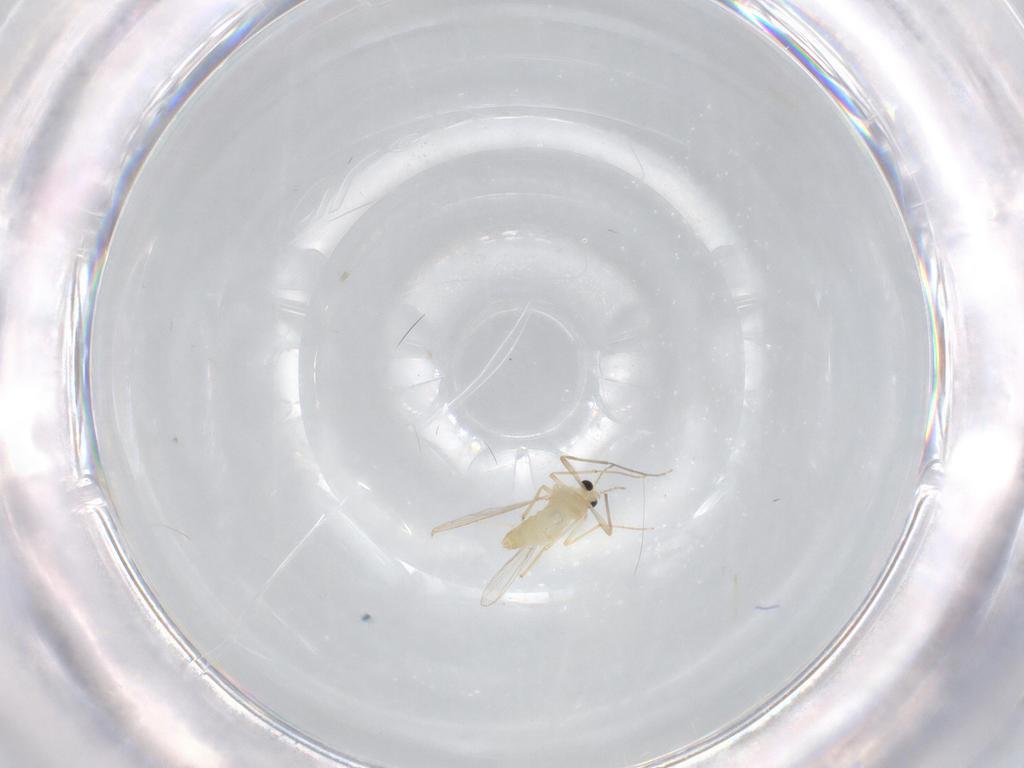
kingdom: Animalia
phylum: Arthropoda
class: Insecta
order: Diptera
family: Chironomidae
